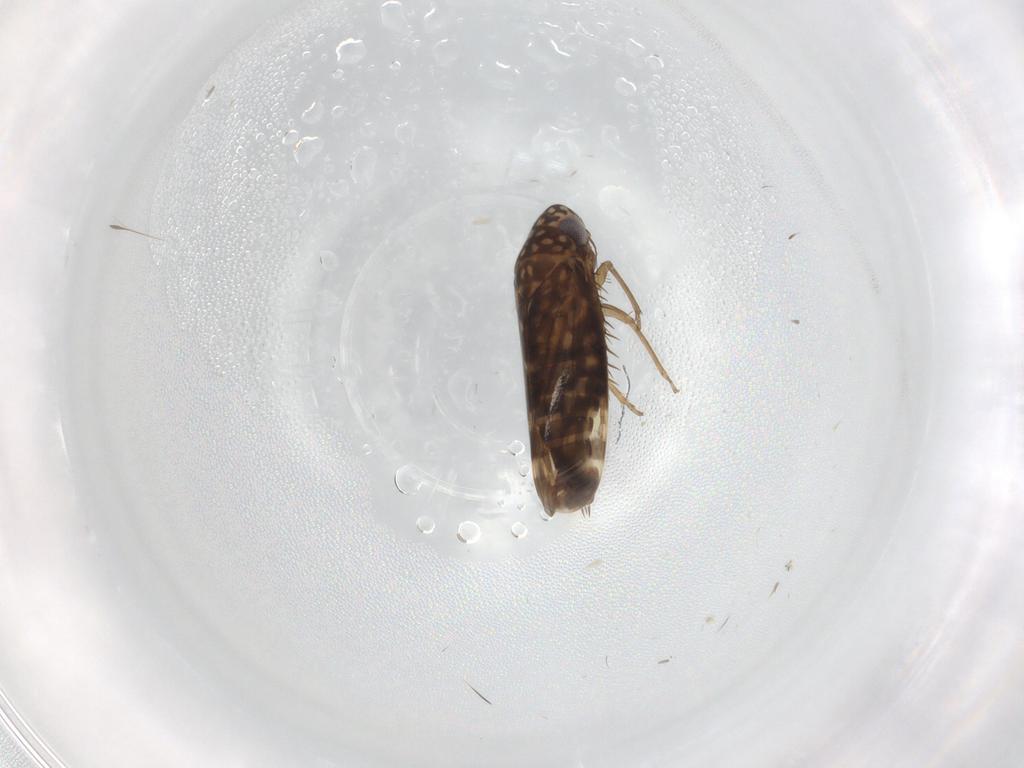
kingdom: Animalia
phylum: Arthropoda
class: Insecta
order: Hemiptera
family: Cicadellidae
